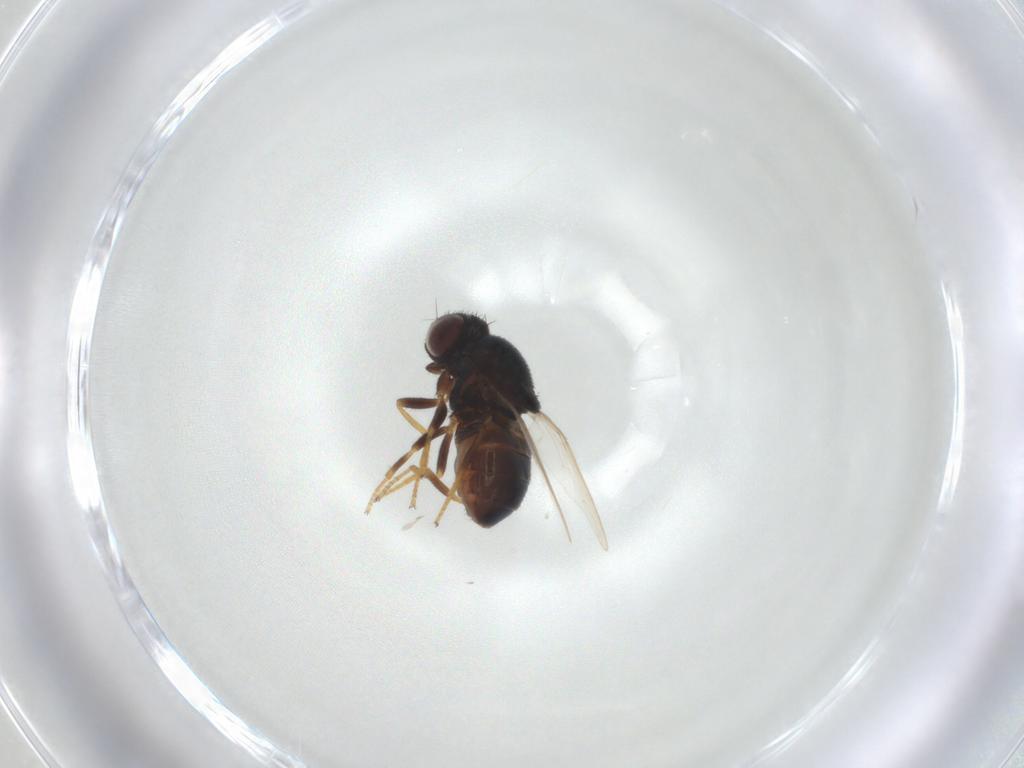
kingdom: Animalia
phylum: Arthropoda
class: Insecta
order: Diptera
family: Chloropidae
